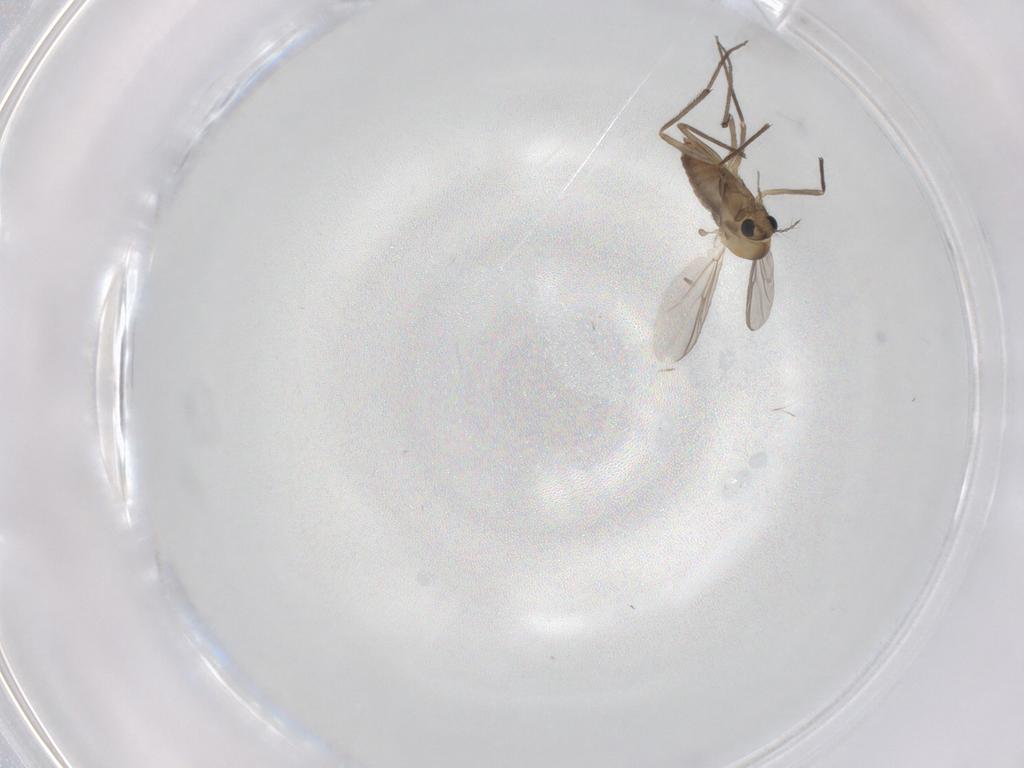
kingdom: Animalia
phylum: Arthropoda
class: Insecta
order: Diptera
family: Chironomidae
